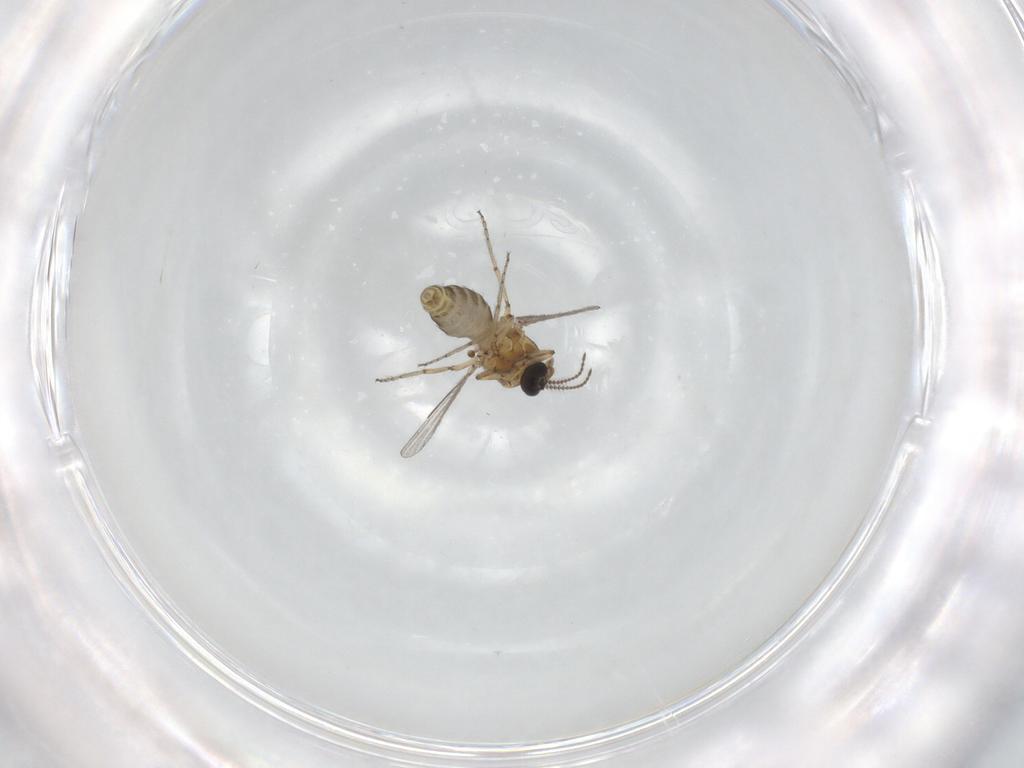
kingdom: Animalia
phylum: Arthropoda
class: Insecta
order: Diptera
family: Ceratopogonidae
